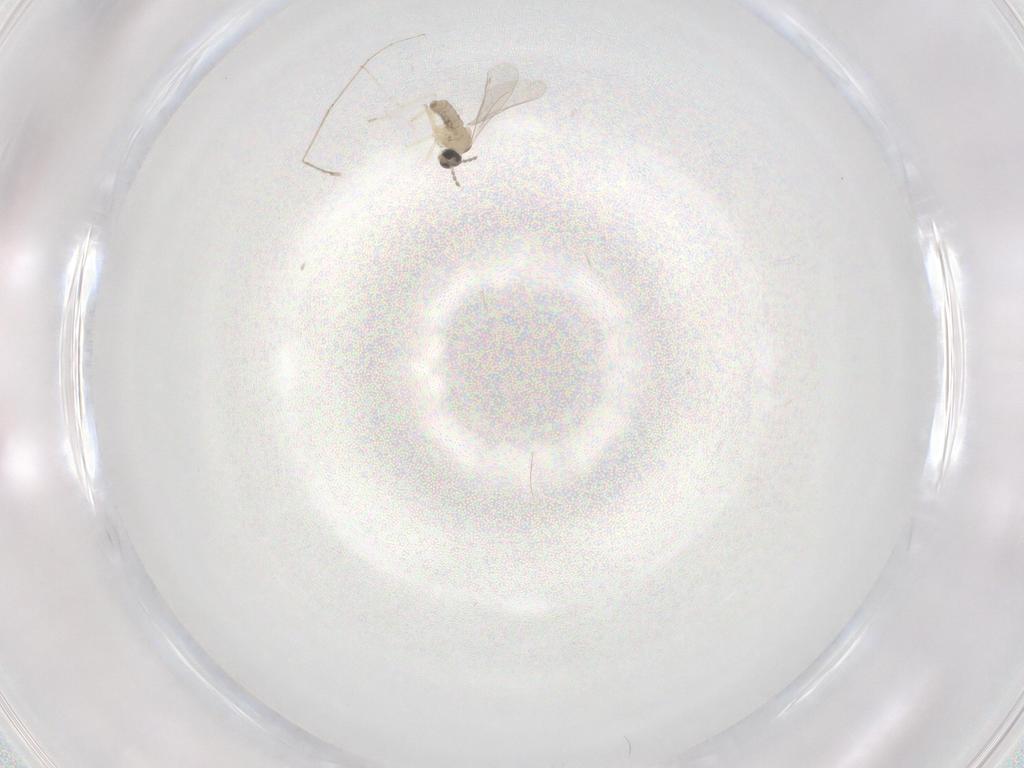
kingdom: Animalia
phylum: Arthropoda
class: Insecta
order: Diptera
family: Cecidomyiidae
